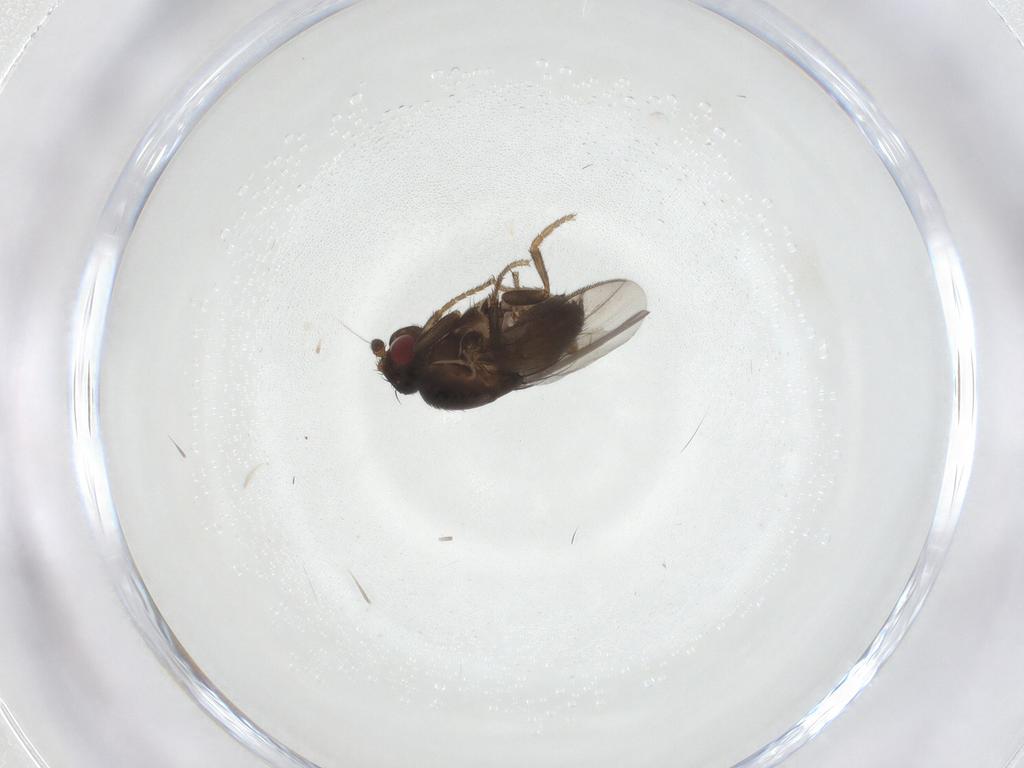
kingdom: Animalia
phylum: Arthropoda
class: Insecta
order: Diptera
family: Sphaeroceridae
